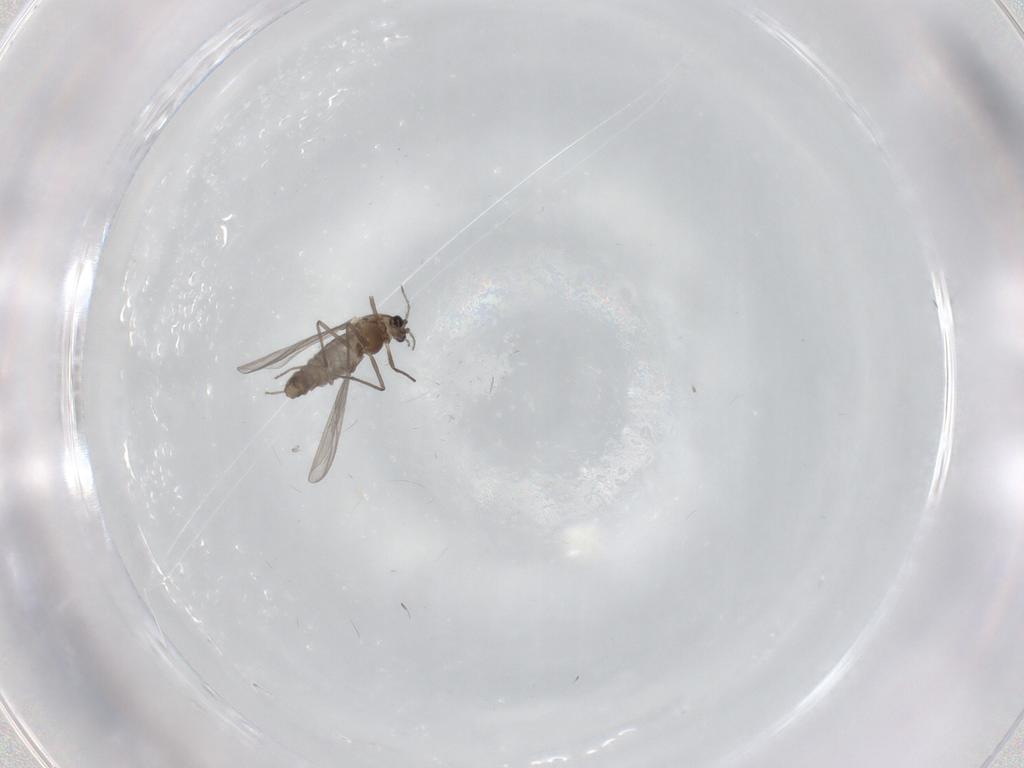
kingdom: Animalia
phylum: Arthropoda
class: Insecta
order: Diptera
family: Chironomidae
